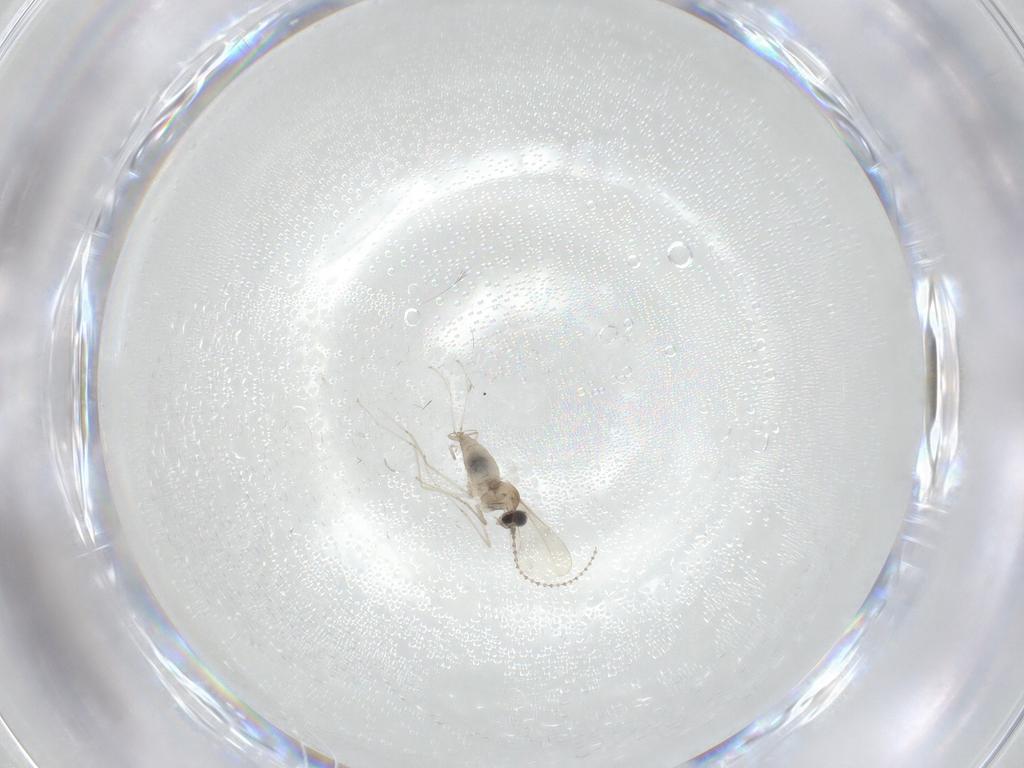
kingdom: Animalia
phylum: Arthropoda
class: Insecta
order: Diptera
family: Cecidomyiidae
